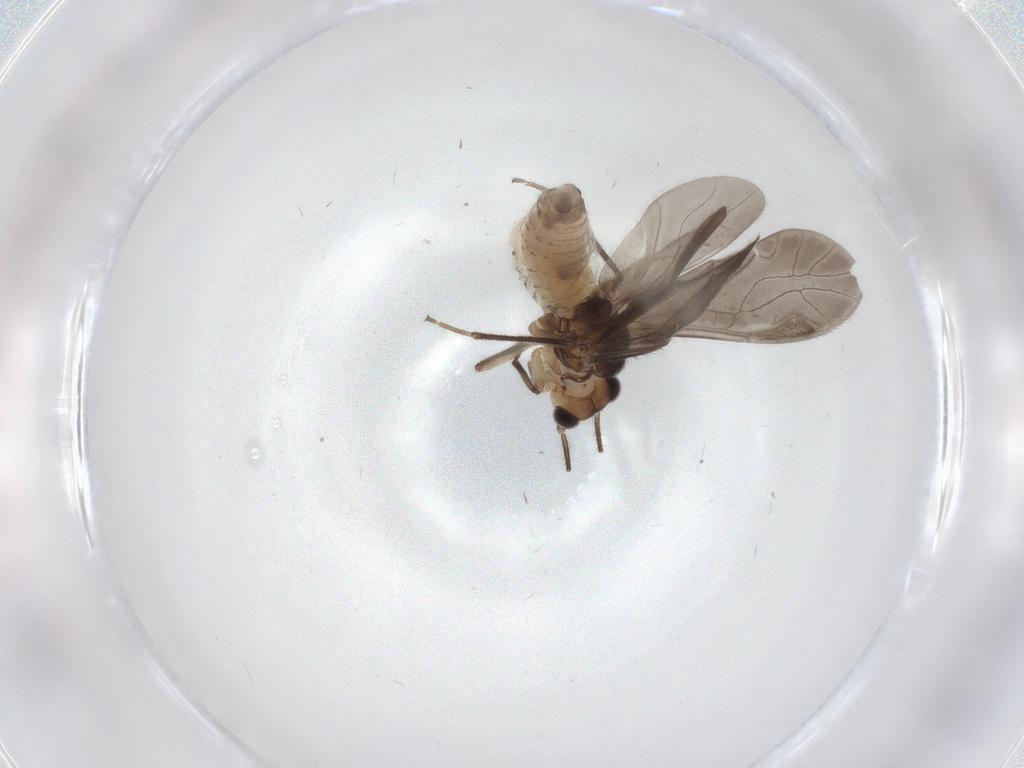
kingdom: Animalia
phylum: Arthropoda
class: Insecta
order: Psocodea
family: Caeciliusidae
